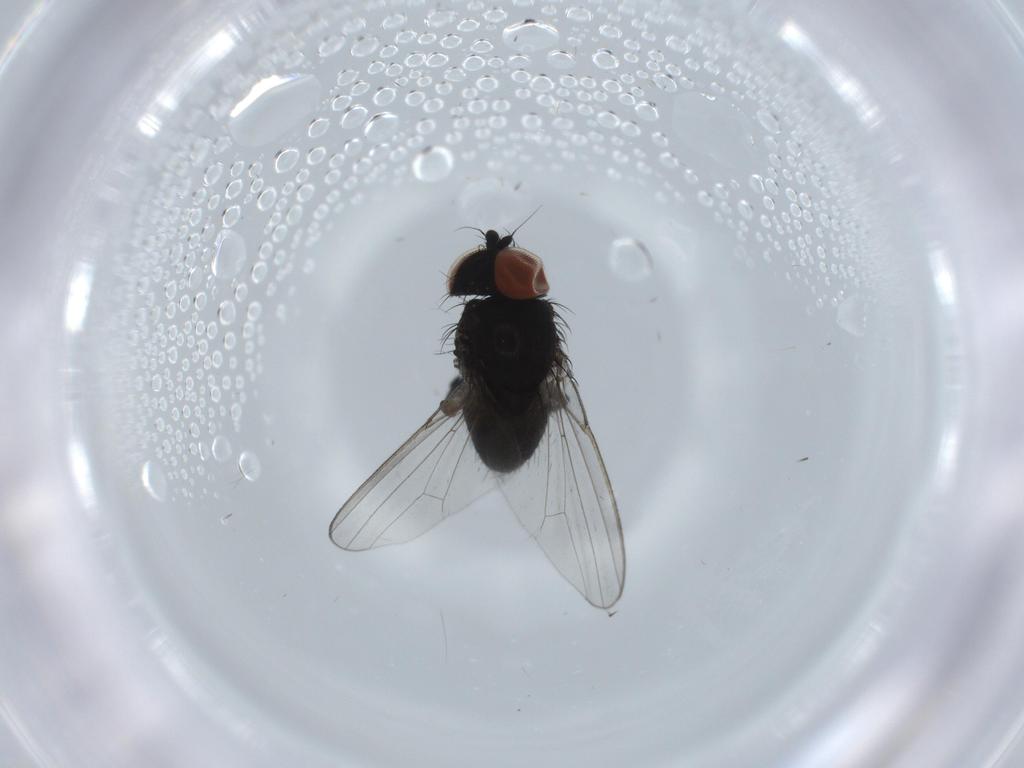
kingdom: Animalia
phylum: Arthropoda
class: Insecta
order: Diptera
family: Milichiidae
